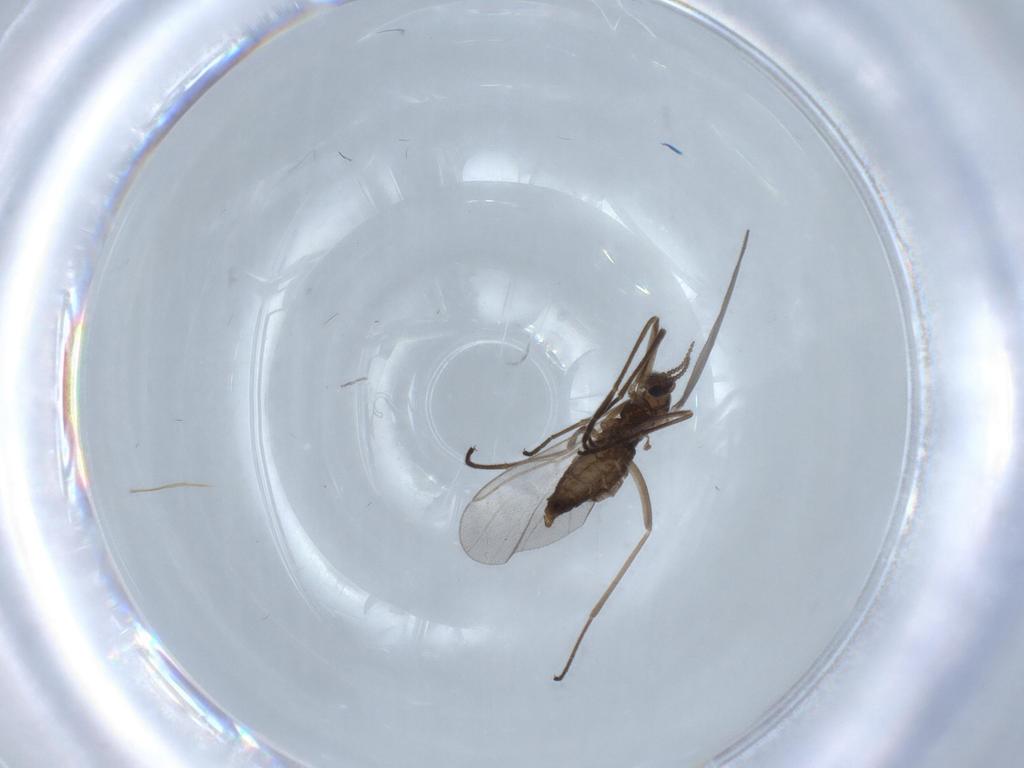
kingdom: Animalia
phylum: Arthropoda
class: Insecta
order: Diptera
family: Cecidomyiidae
